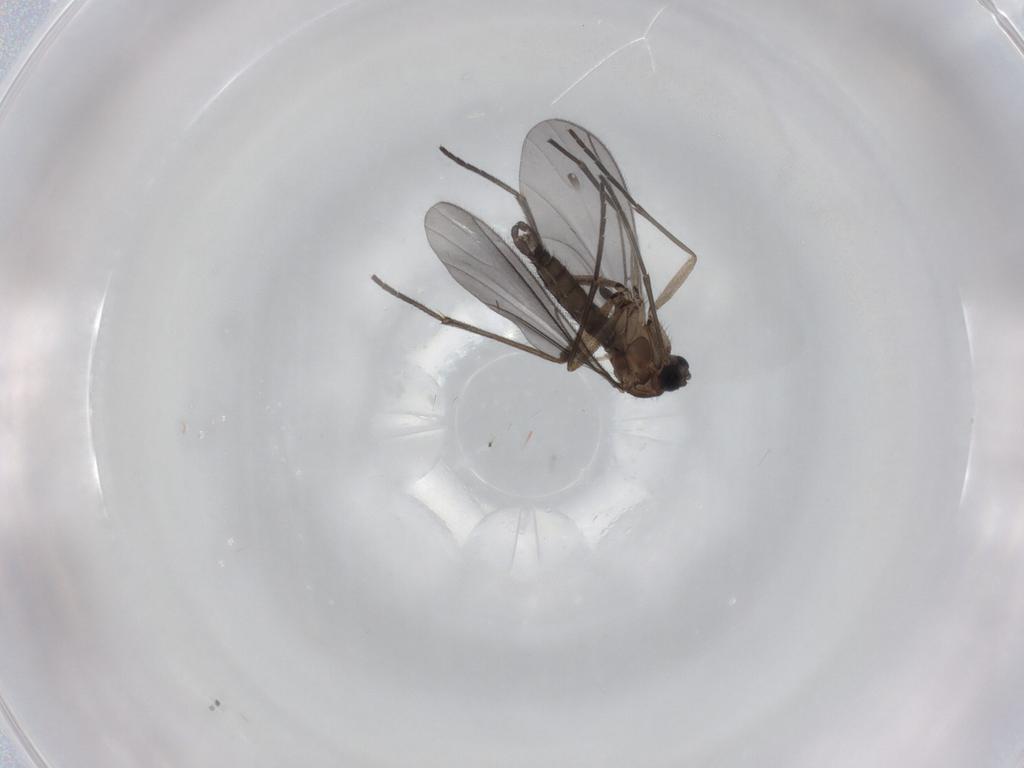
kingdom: Animalia
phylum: Arthropoda
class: Insecta
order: Diptera
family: Sciaridae
